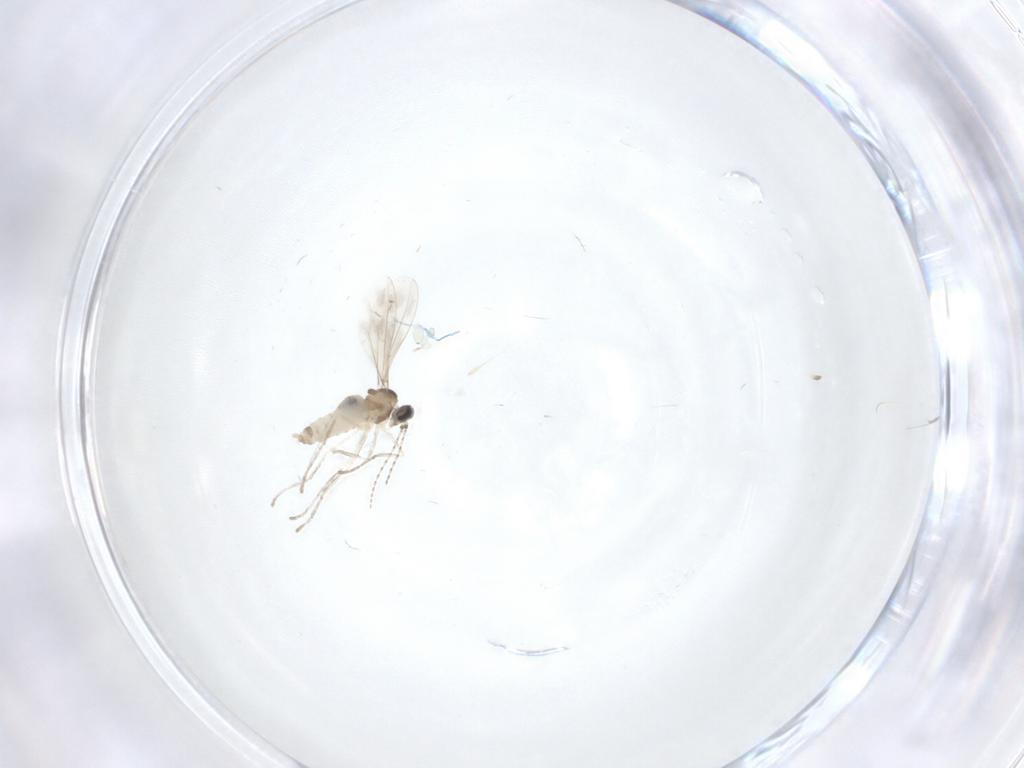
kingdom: Animalia
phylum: Arthropoda
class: Insecta
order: Diptera
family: Cecidomyiidae
